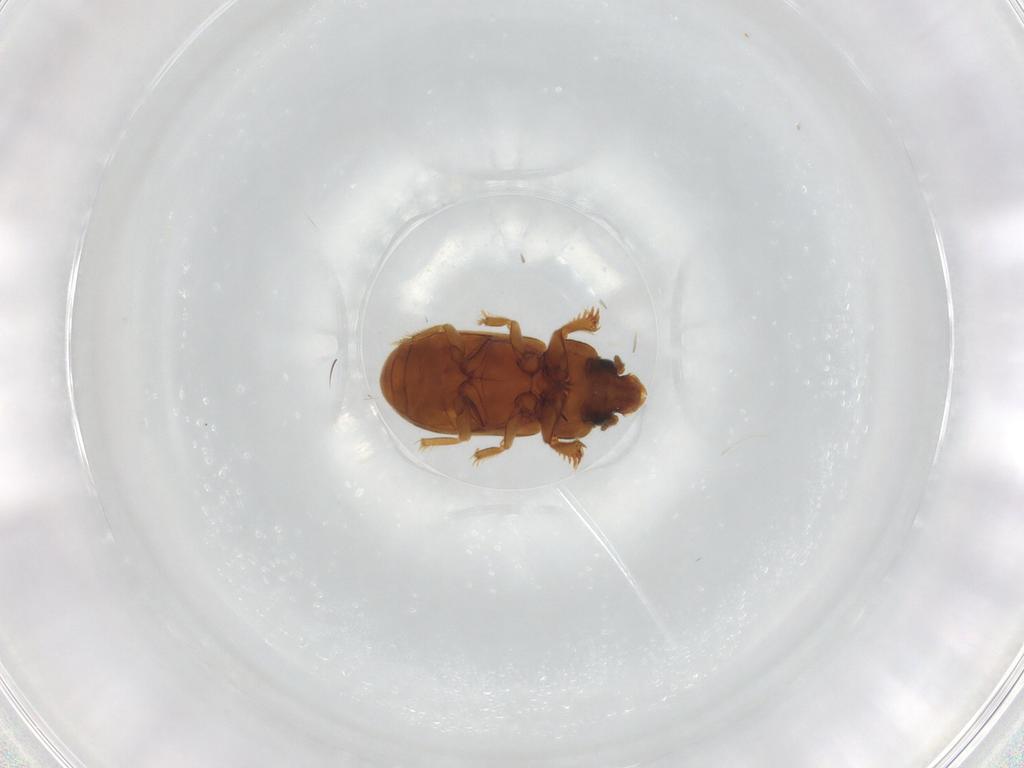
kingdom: Animalia
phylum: Arthropoda
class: Insecta
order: Coleoptera
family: Heteroceridae
